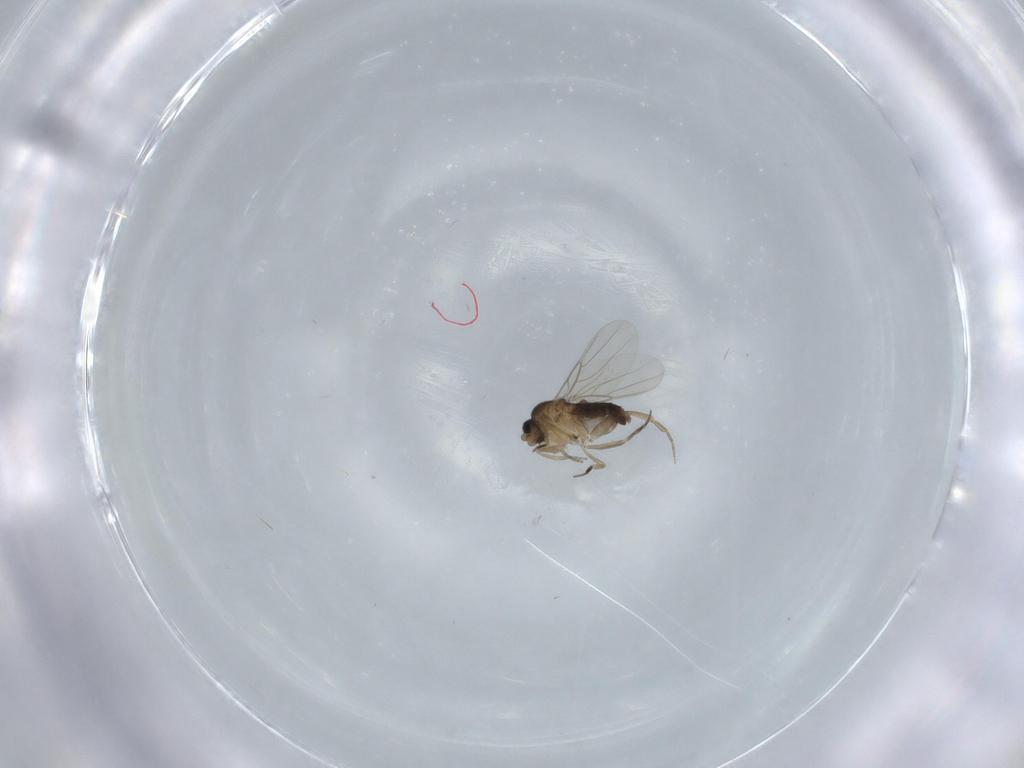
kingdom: Animalia
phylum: Arthropoda
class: Insecta
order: Diptera
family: Phoridae
